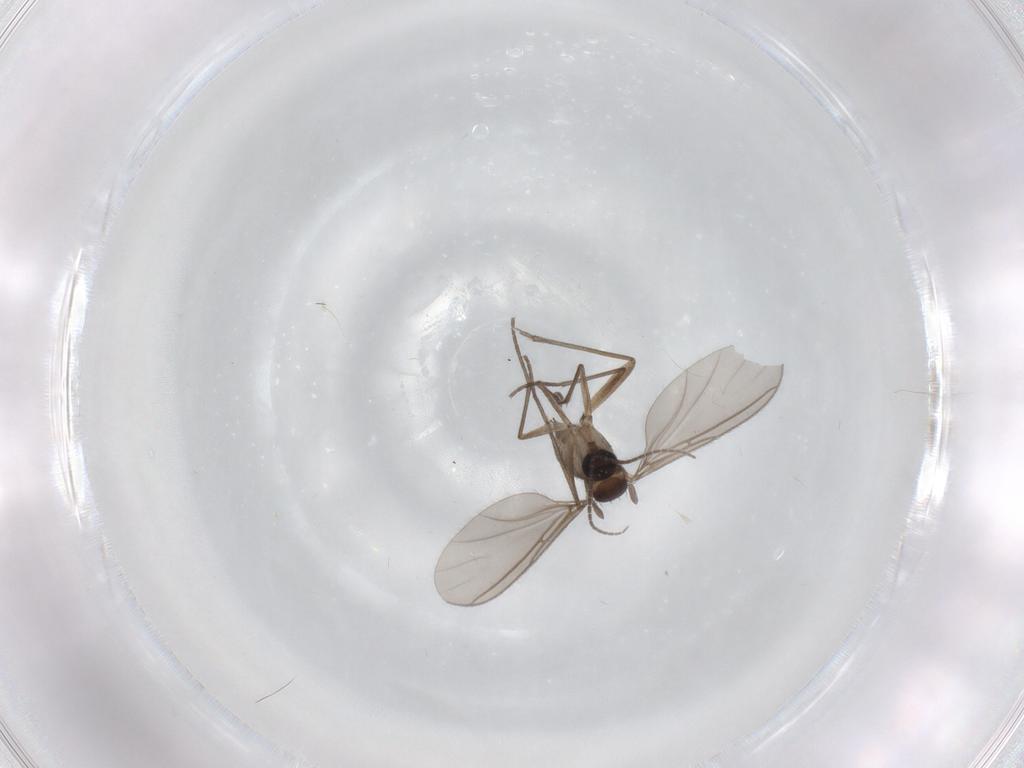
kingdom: Animalia
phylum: Arthropoda
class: Insecta
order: Diptera
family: Sciaridae
